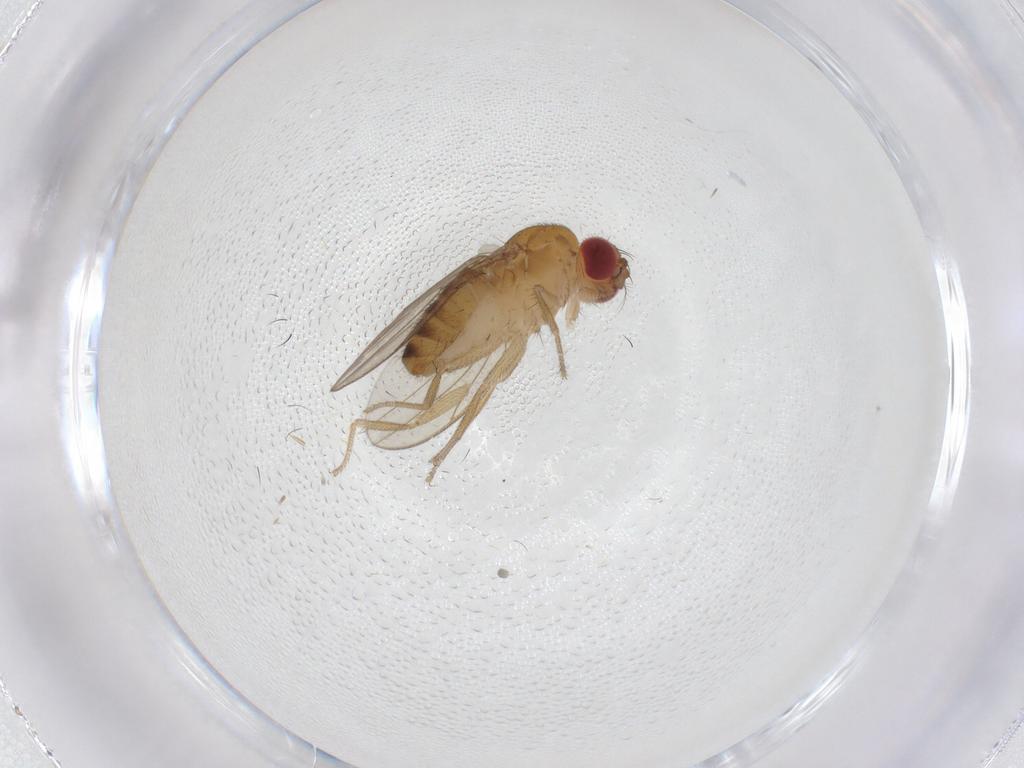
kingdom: Animalia
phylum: Arthropoda
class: Insecta
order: Diptera
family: Drosophilidae
